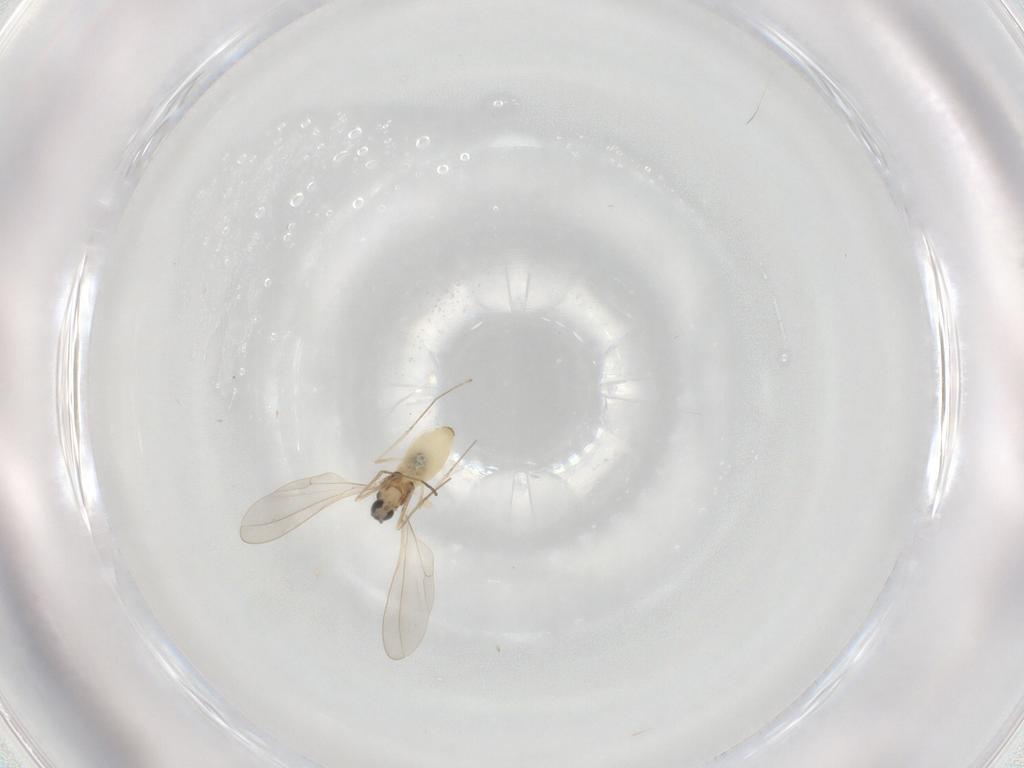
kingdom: Animalia
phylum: Arthropoda
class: Insecta
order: Diptera
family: Cecidomyiidae
